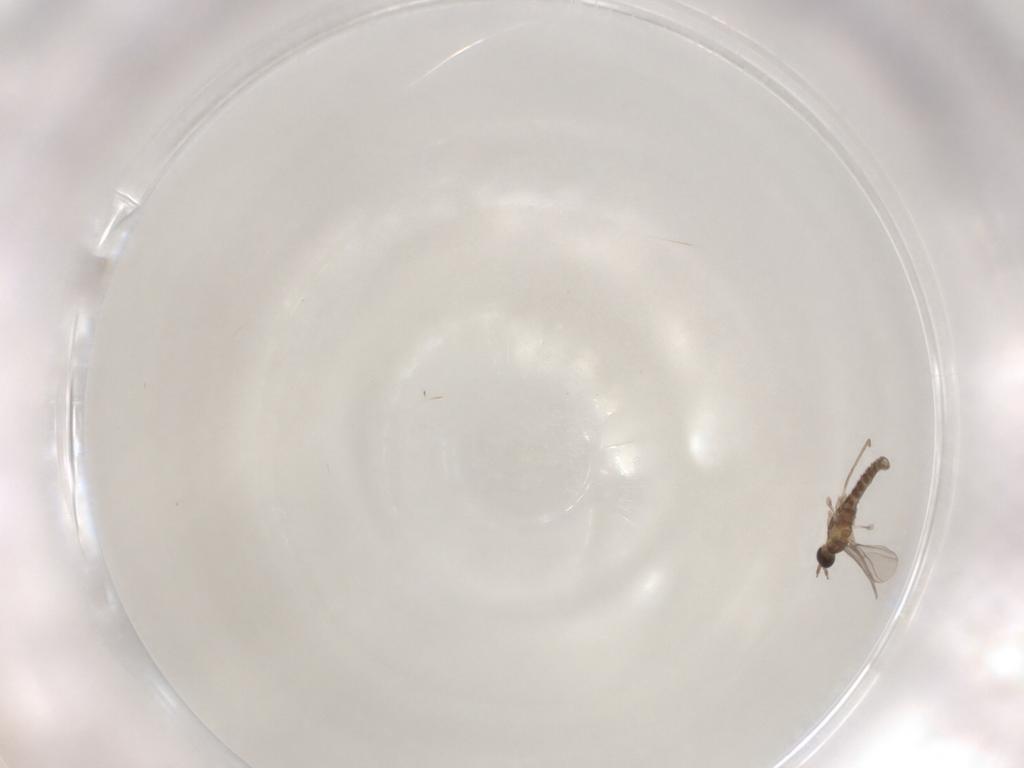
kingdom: Animalia
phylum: Arthropoda
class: Insecta
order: Diptera
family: Cecidomyiidae
